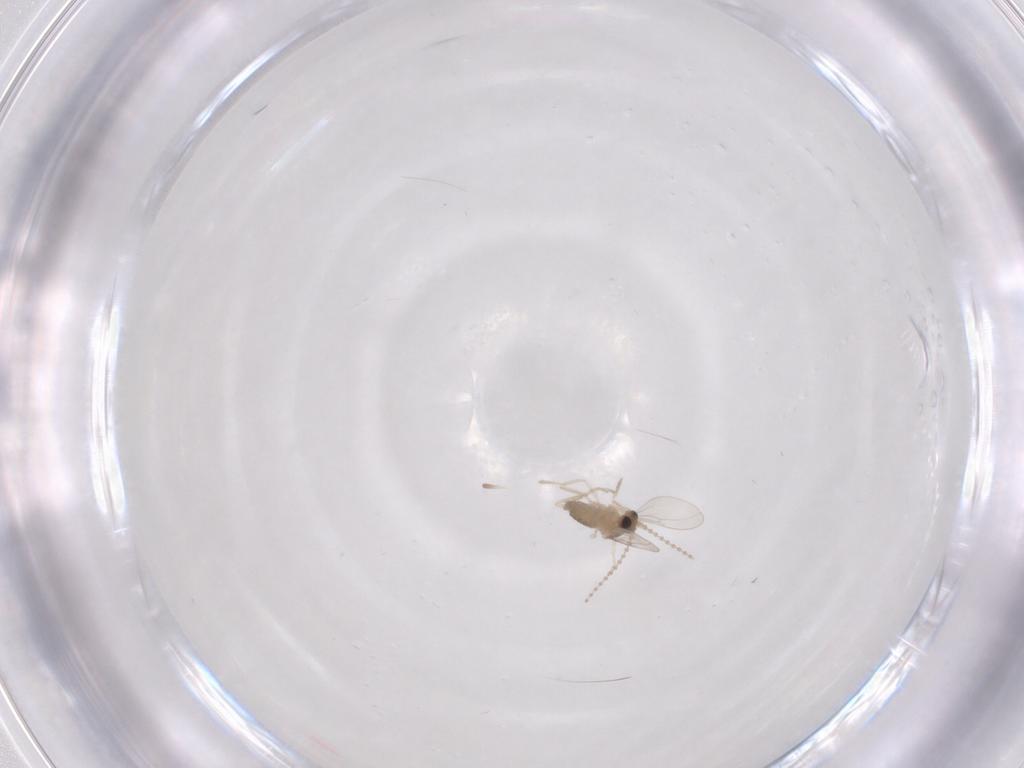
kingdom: Animalia
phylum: Arthropoda
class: Insecta
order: Diptera
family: Cecidomyiidae
